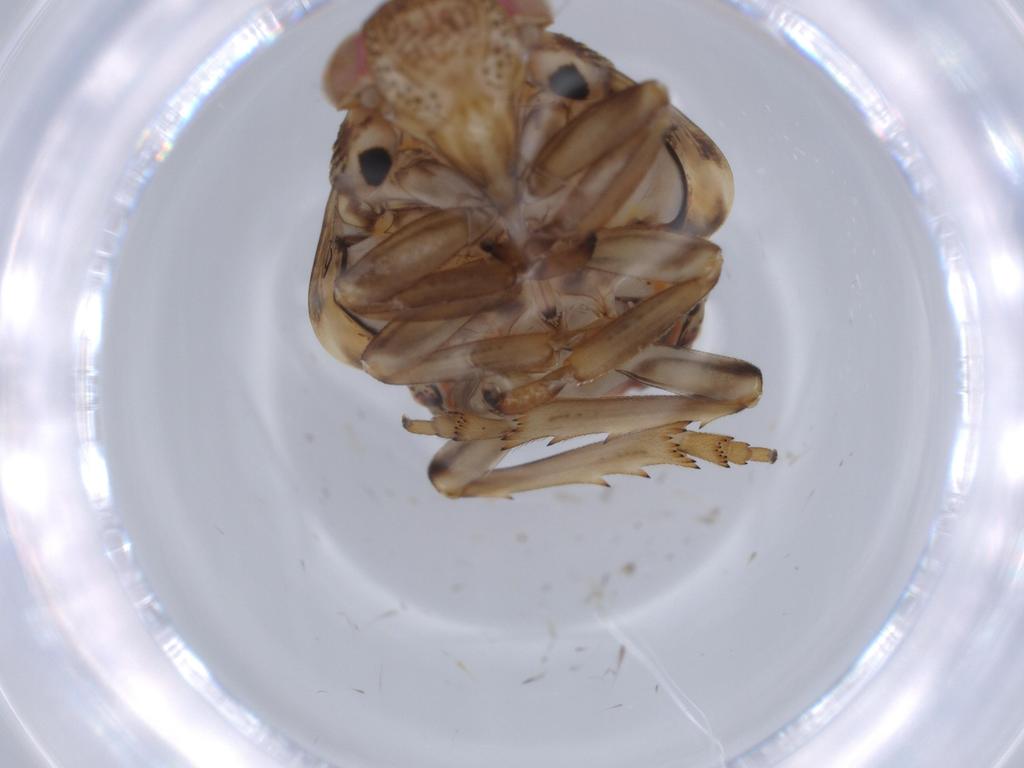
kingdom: Animalia
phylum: Arthropoda
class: Insecta
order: Hemiptera
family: Issidae
